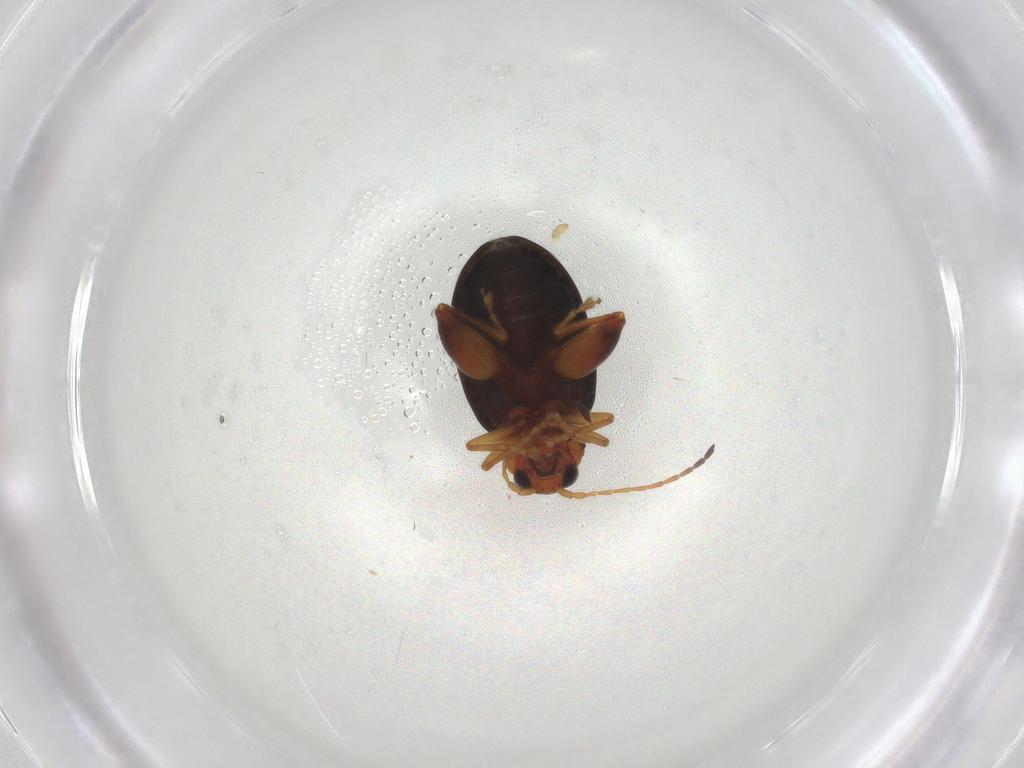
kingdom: Animalia
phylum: Arthropoda
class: Insecta
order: Coleoptera
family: Chrysomelidae
